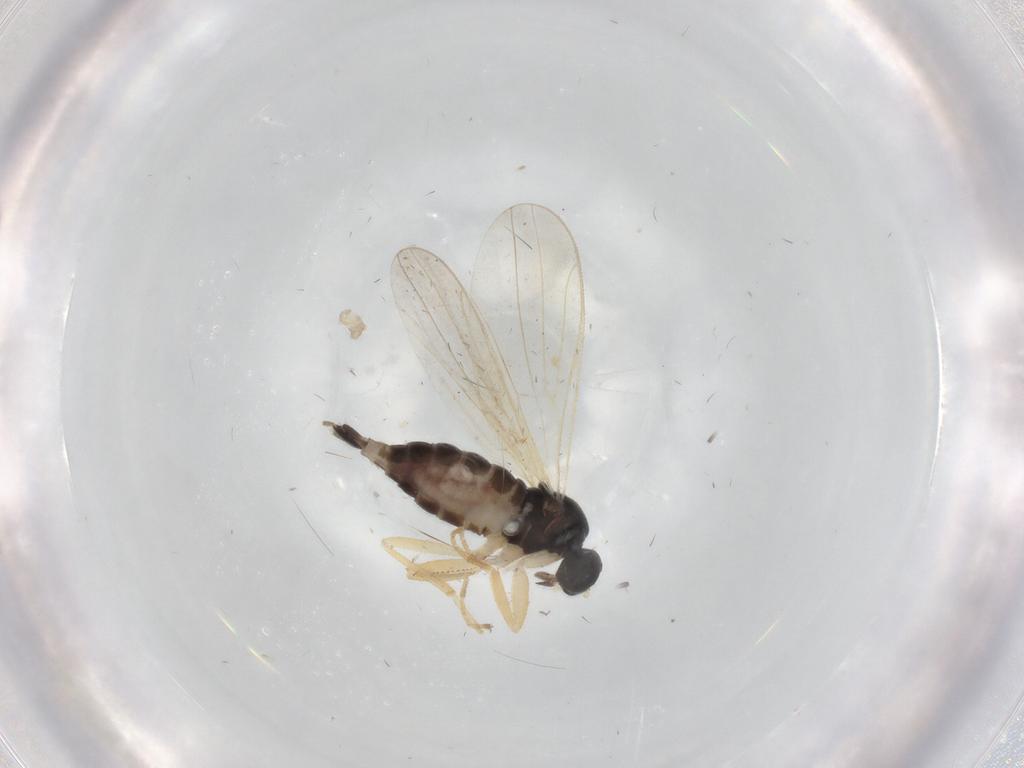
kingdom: Animalia
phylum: Arthropoda
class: Insecta
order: Diptera
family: Hybotidae
